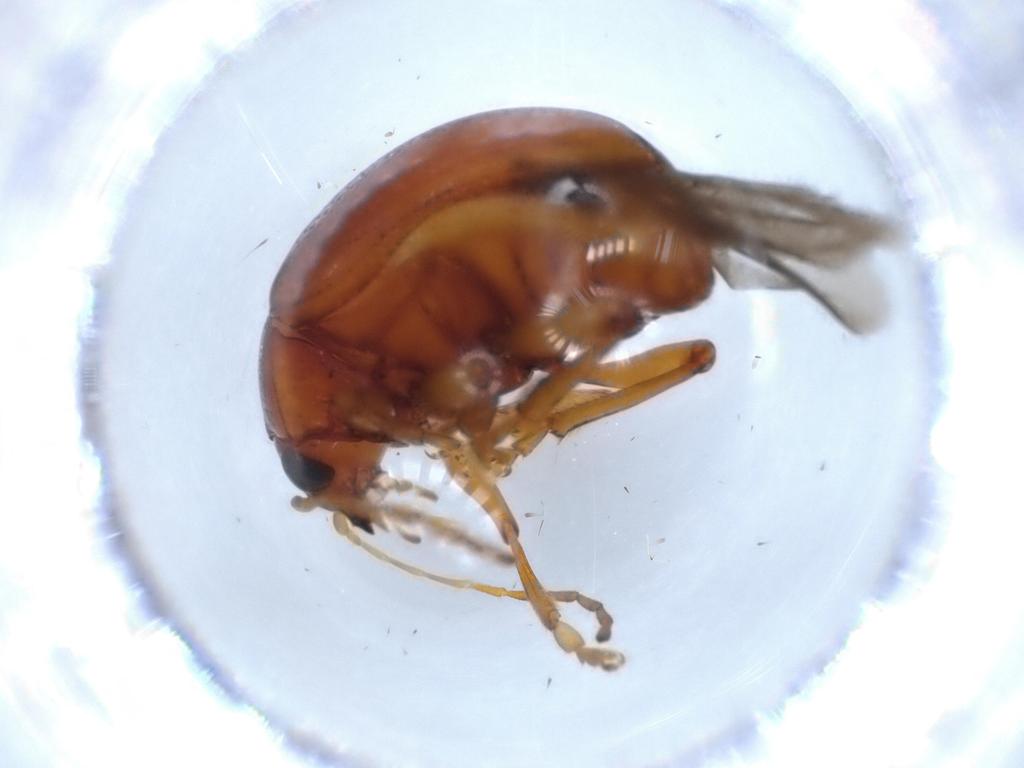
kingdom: Animalia
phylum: Arthropoda
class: Insecta
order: Coleoptera
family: Chrysomelidae
